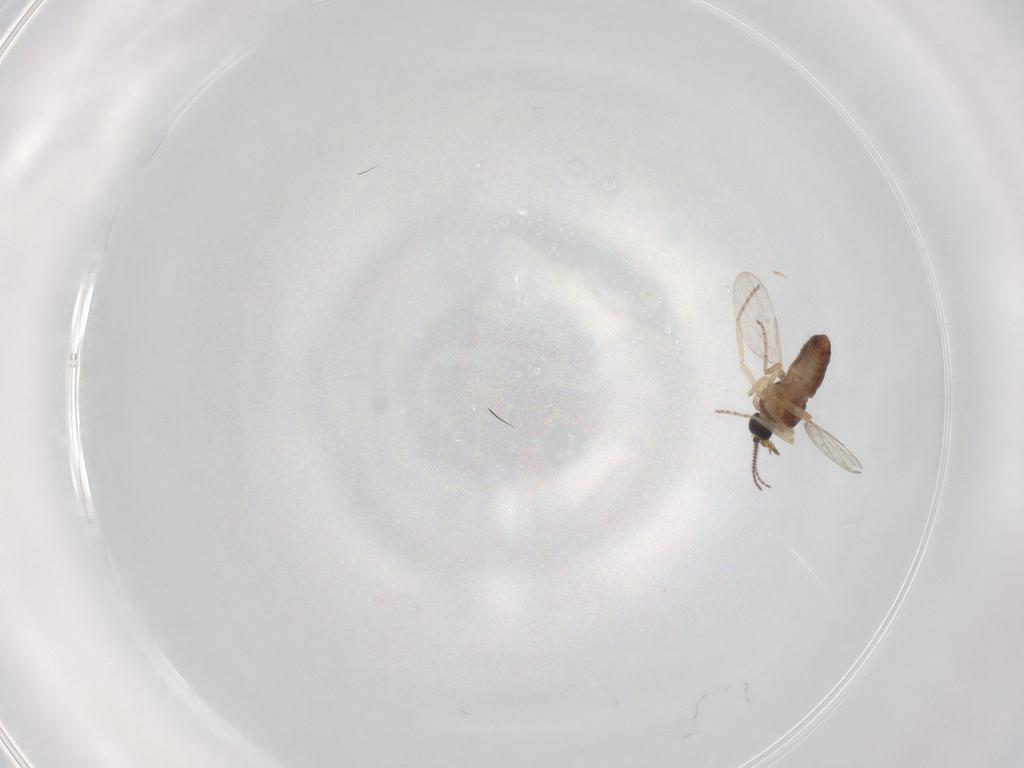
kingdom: Animalia
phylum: Arthropoda
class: Insecta
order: Diptera
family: Ceratopogonidae
